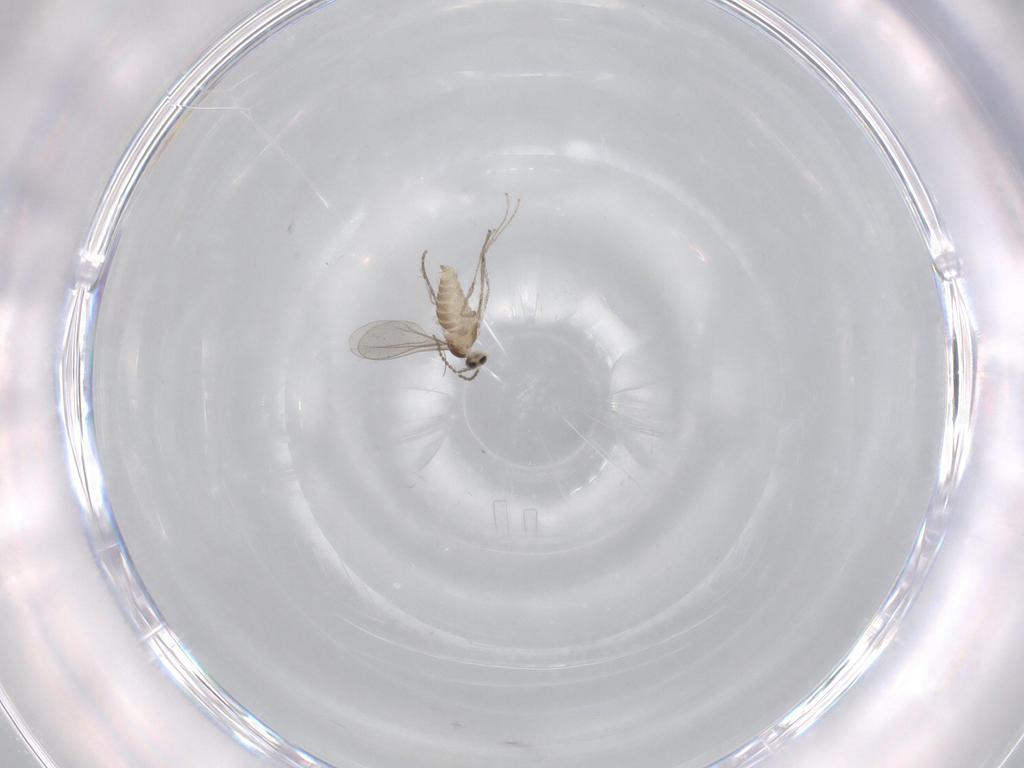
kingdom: Animalia
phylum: Arthropoda
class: Insecta
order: Diptera
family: Cecidomyiidae
